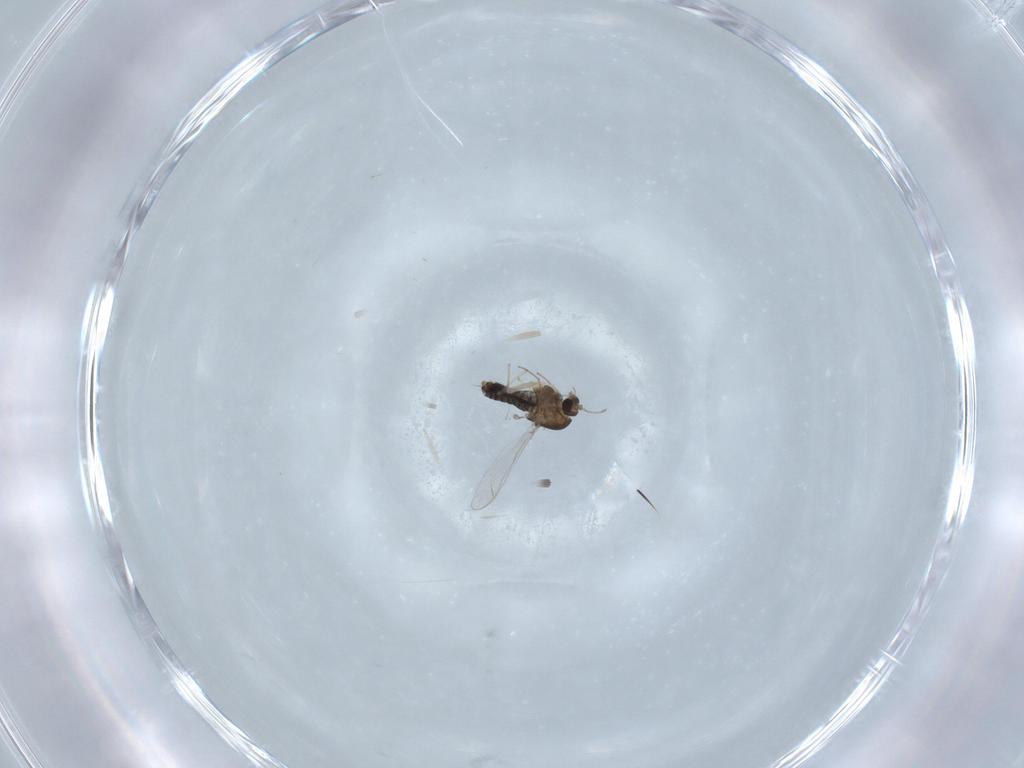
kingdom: Animalia
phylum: Arthropoda
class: Insecta
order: Diptera
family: Chironomidae
